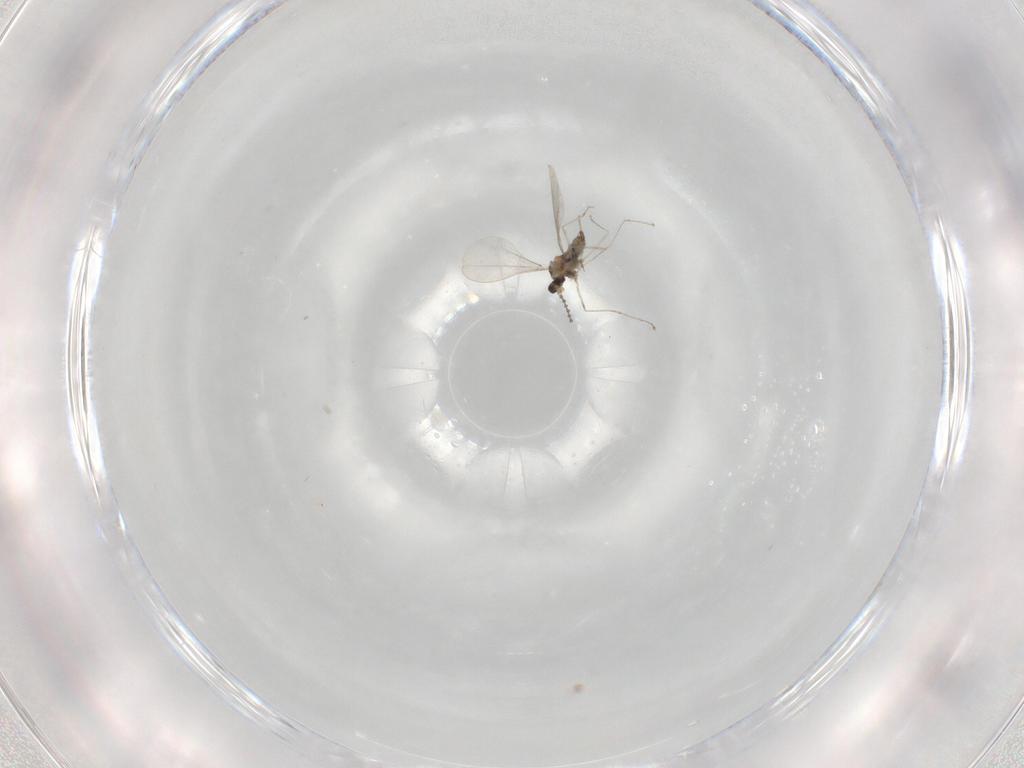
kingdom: Animalia
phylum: Arthropoda
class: Insecta
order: Diptera
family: Cecidomyiidae
